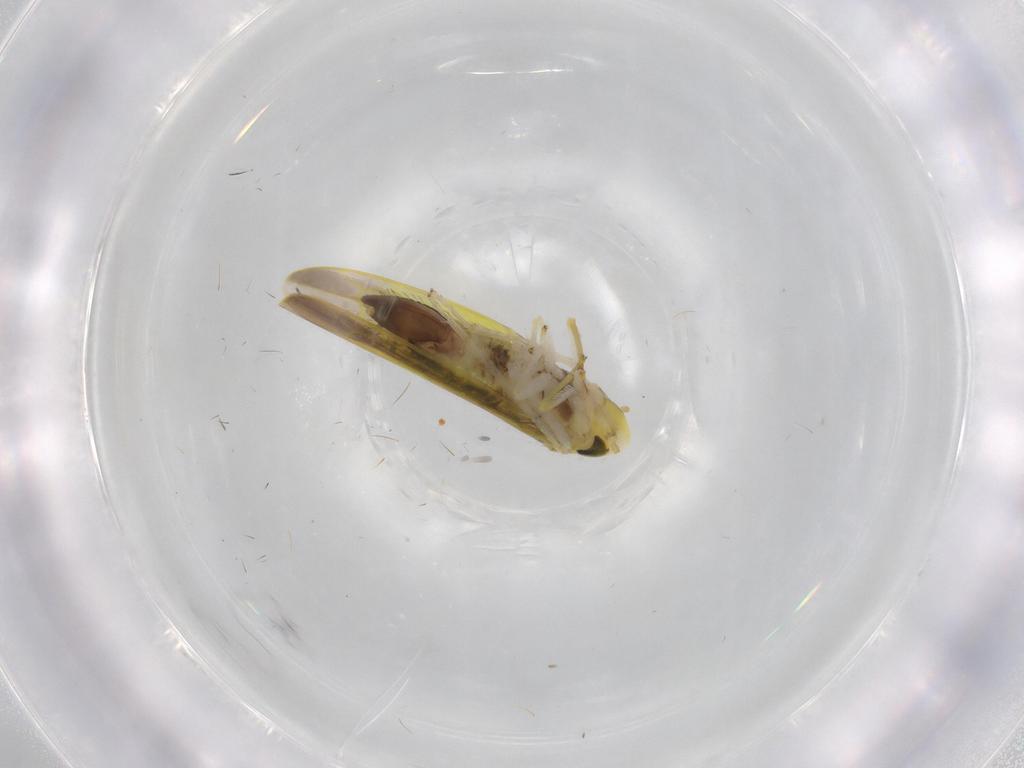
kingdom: Animalia
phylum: Arthropoda
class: Insecta
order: Hemiptera
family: Cicadellidae
